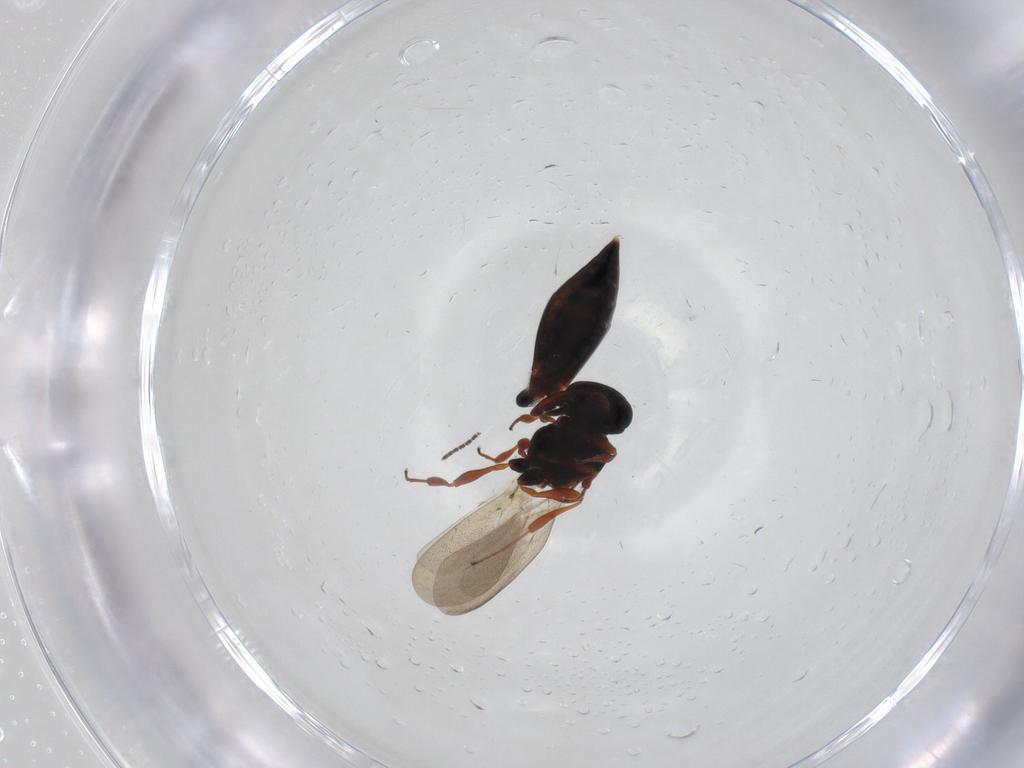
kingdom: Animalia
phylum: Arthropoda
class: Insecta
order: Hymenoptera
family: Platygastridae
